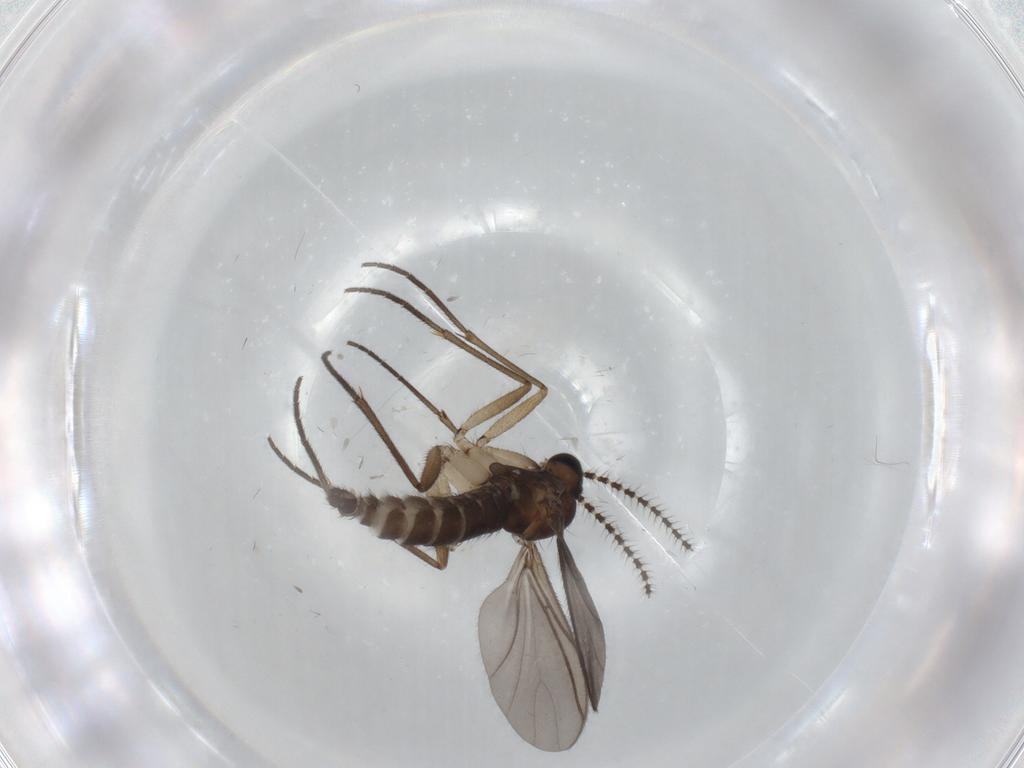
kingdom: Animalia
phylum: Arthropoda
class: Insecta
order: Diptera
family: Sciaridae
